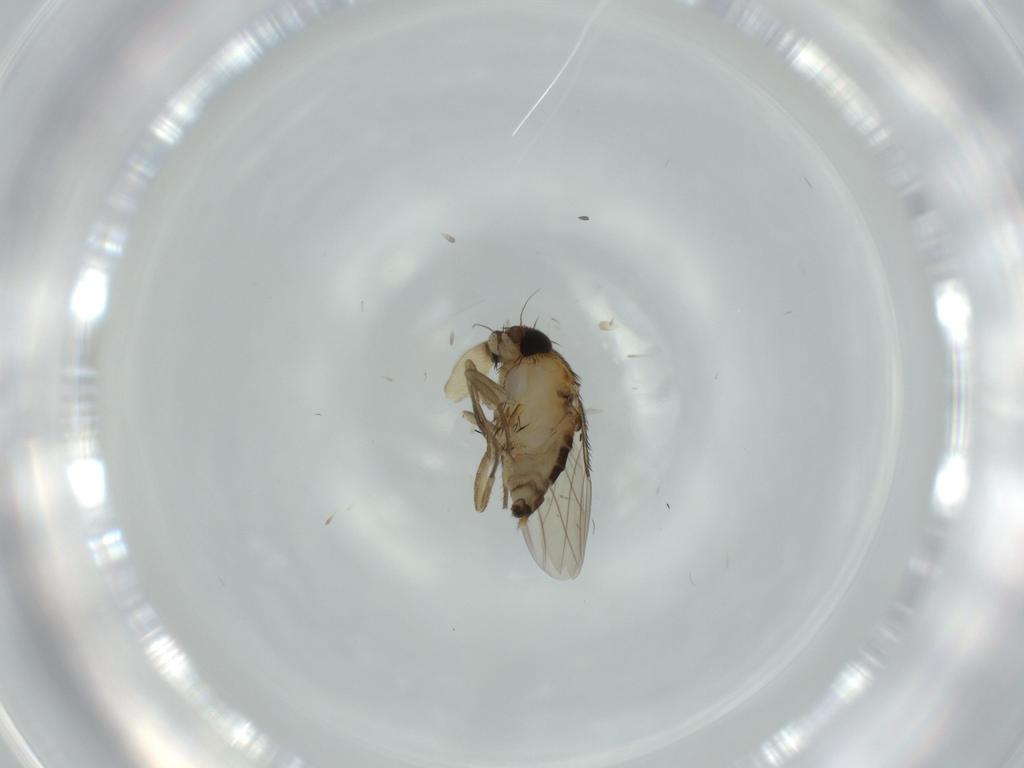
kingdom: Animalia
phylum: Arthropoda
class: Insecta
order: Diptera
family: Phoridae
